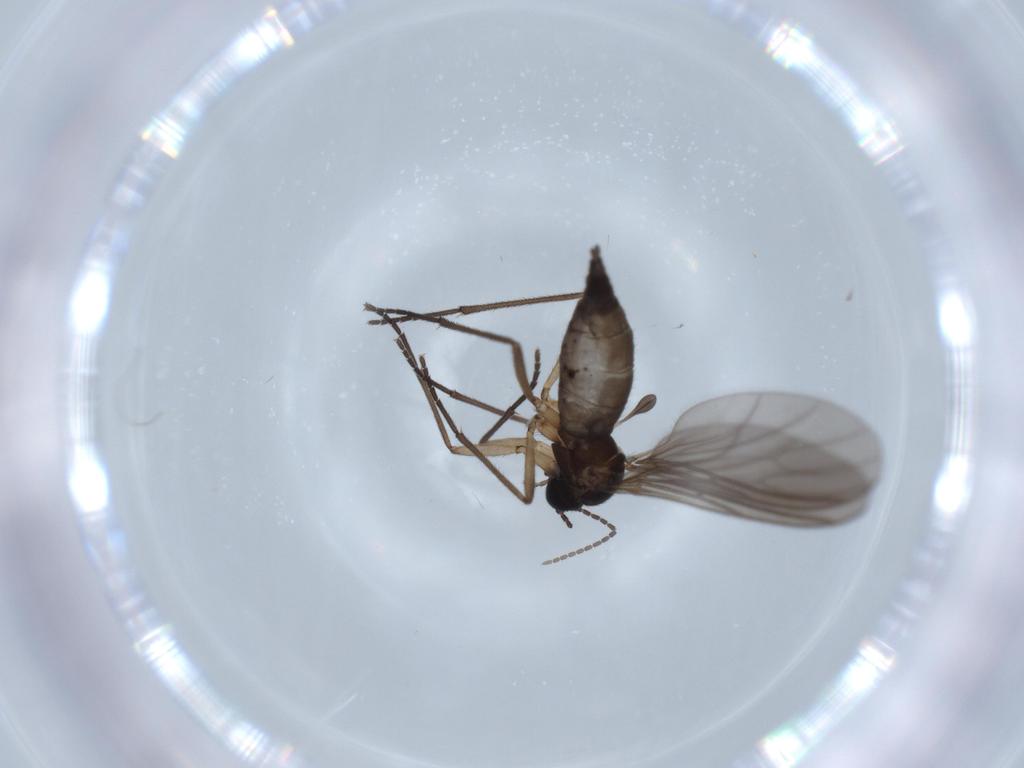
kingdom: Animalia
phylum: Arthropoda
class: Insecta
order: Diptera
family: Sciaridae
